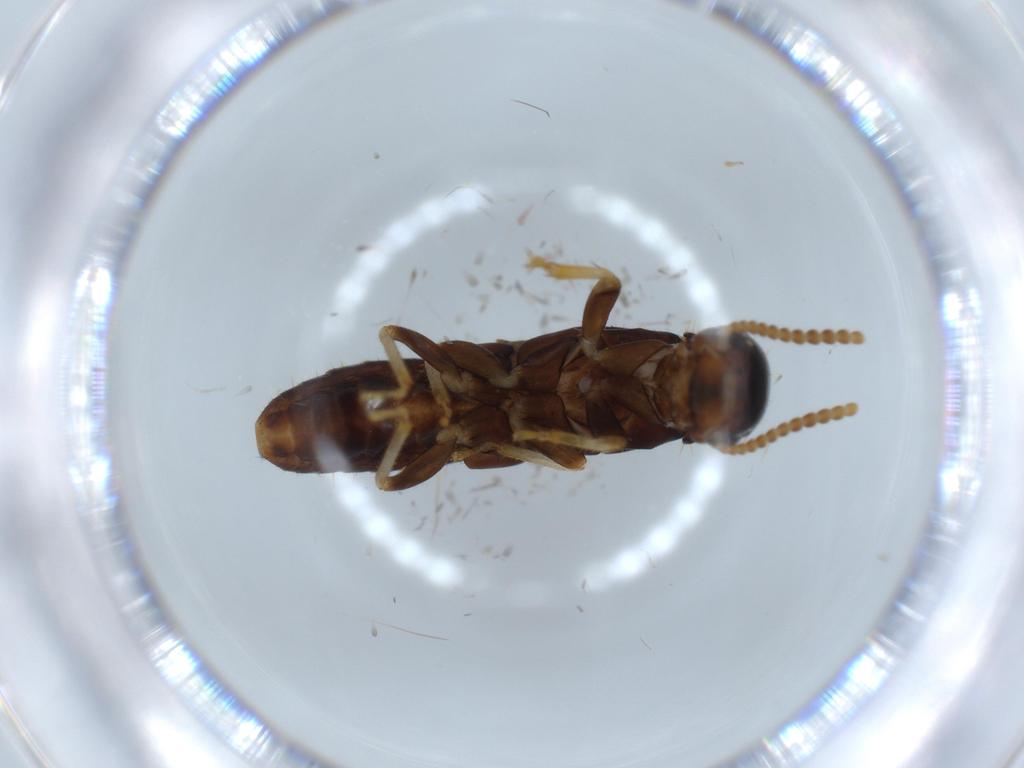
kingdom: Animalia
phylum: Arthropoda
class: Insecta
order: Blattodea
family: Ectobiidae
